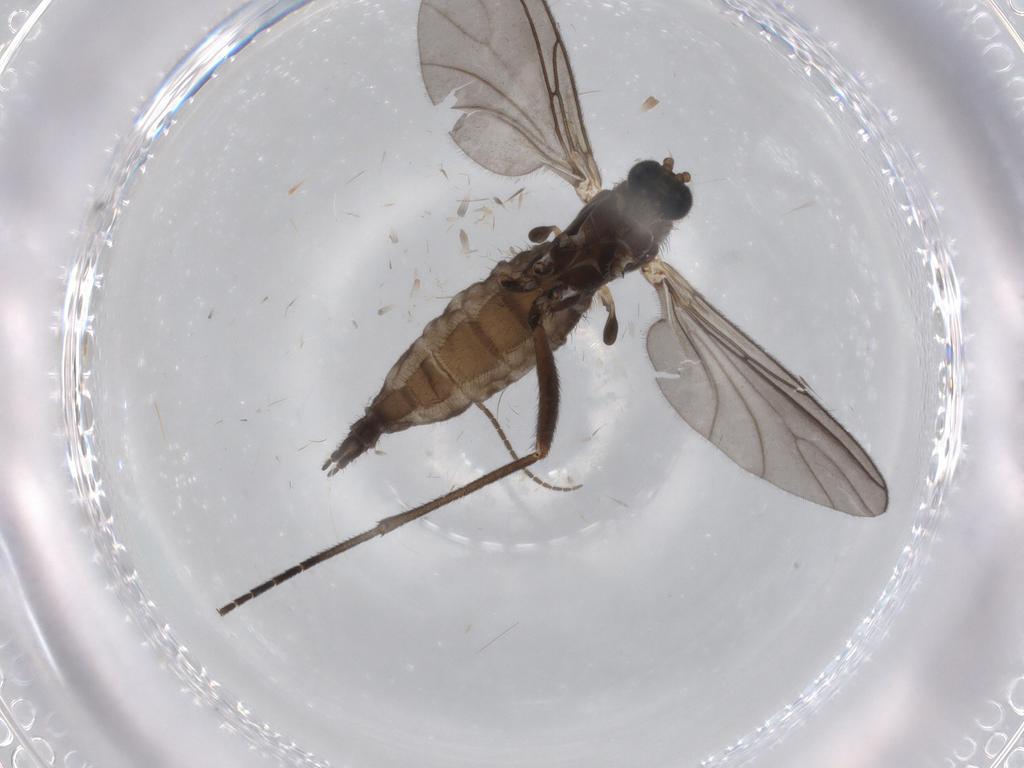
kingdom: Animalia
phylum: Arthropoda
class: Insecta
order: Diptera
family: Sciaridae
